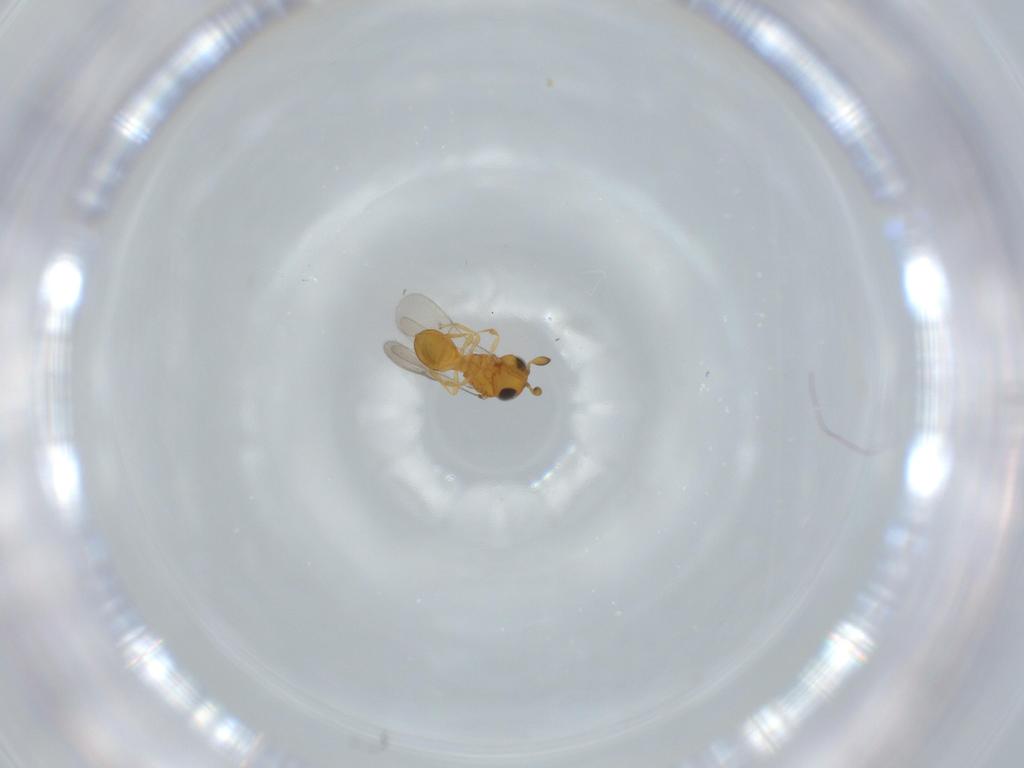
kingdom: Animalia
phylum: Arthropoda
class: Insecta
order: Hymenoptera
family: Scelionidae
